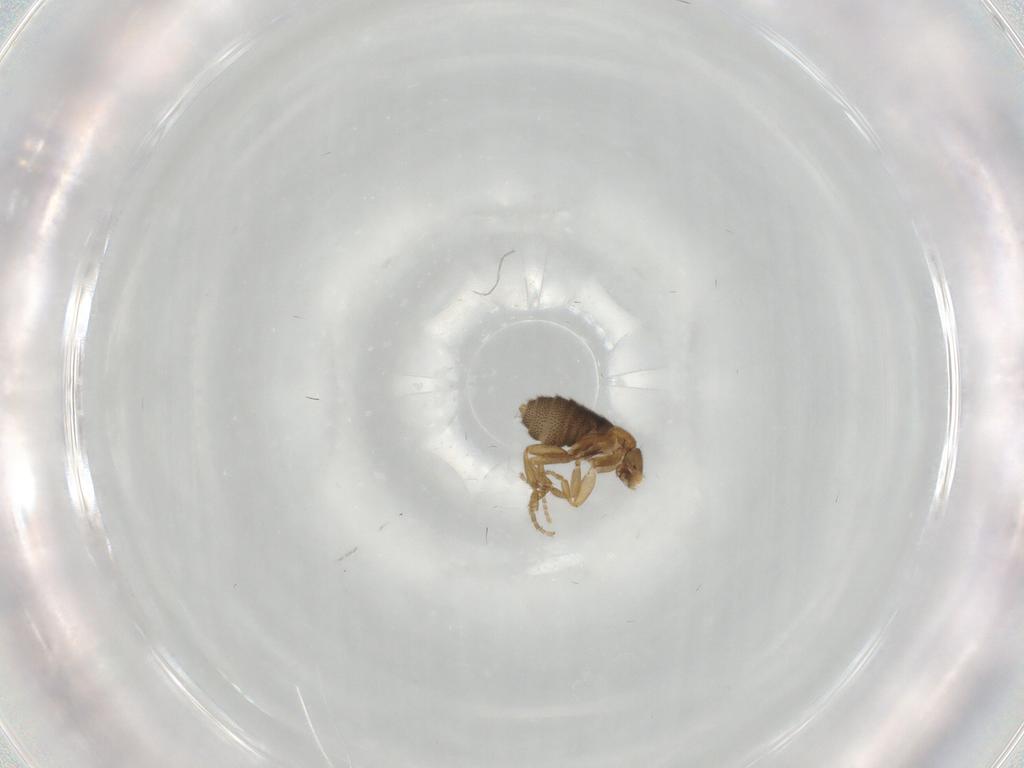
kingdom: Animalia
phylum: Arthropoda
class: Insecta
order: Diptera
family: Phoridae
